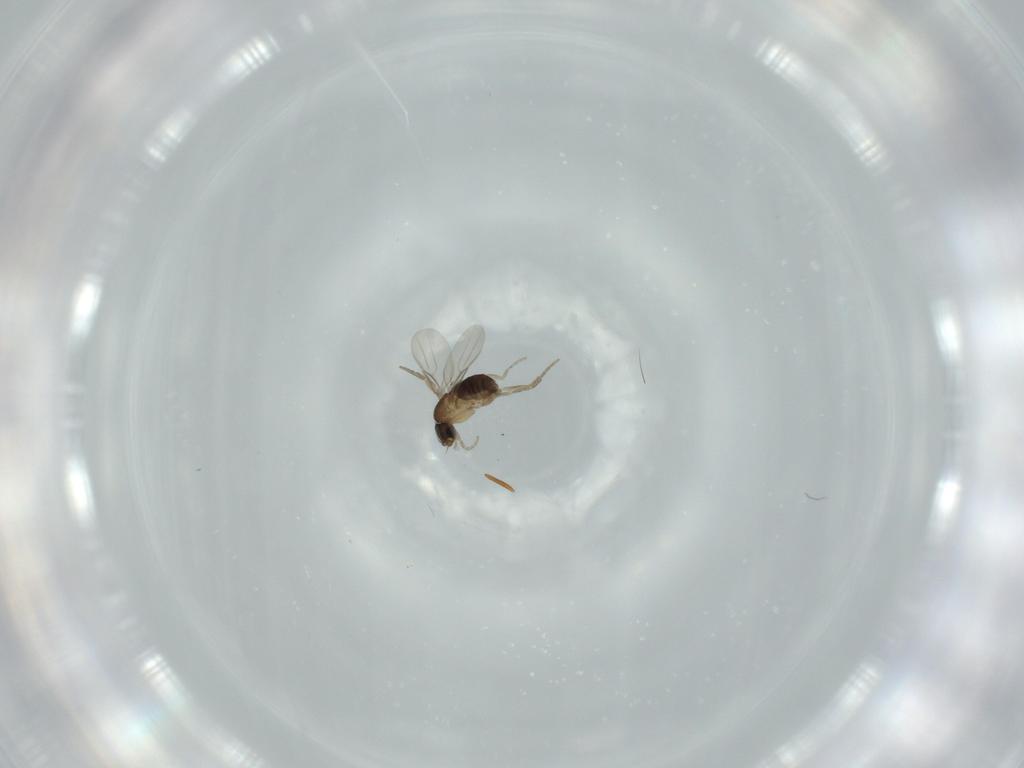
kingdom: Animalia
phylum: Arthropoda
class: Insecta
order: Diptera
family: Phoridae
